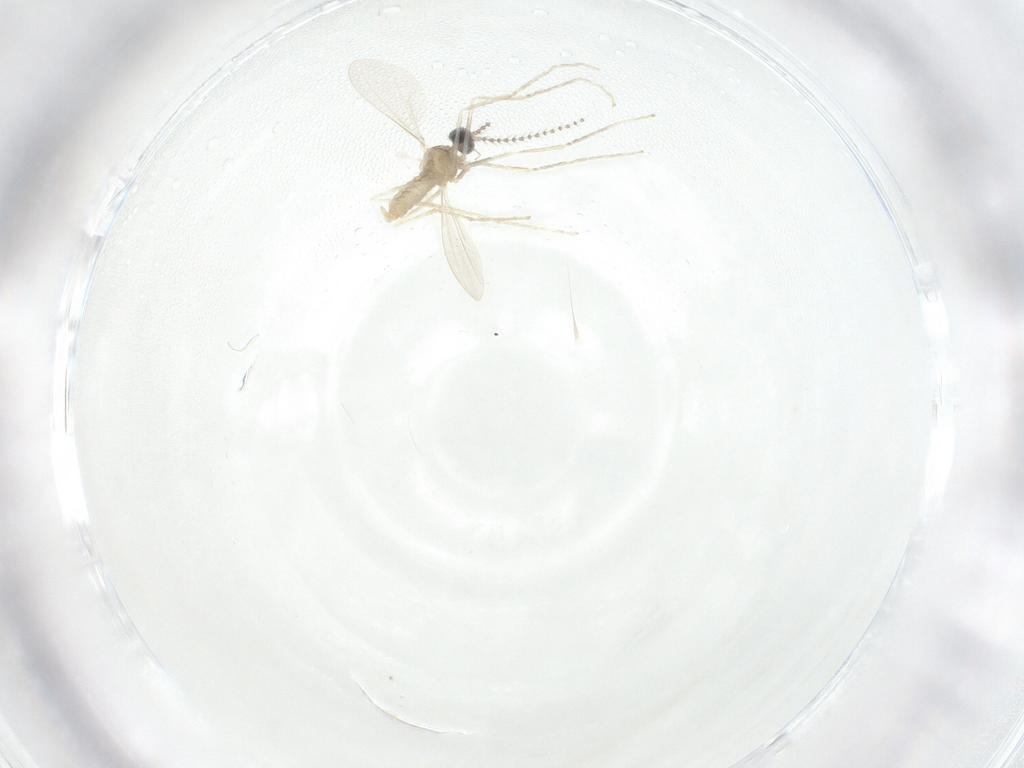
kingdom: Animalia
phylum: Arthropoda
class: Insecta
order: Diptera
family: Cecidomyiidae
